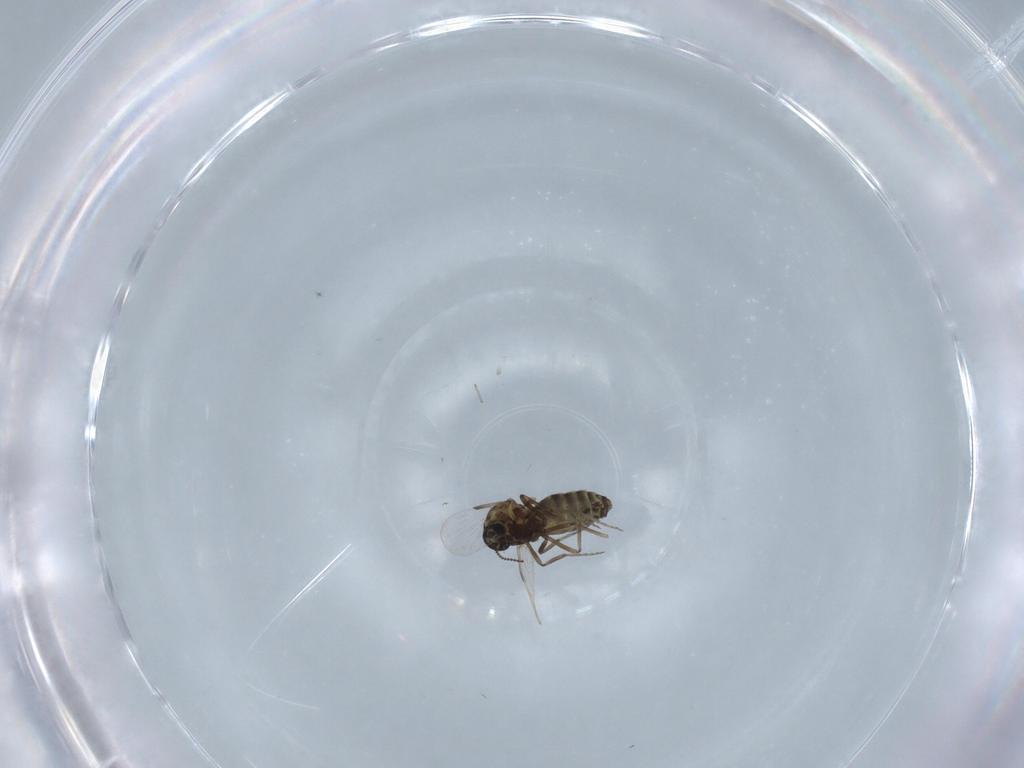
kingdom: Animalia
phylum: Arthropoda
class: Insecta
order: Diptera
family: Ceratopogonidae
